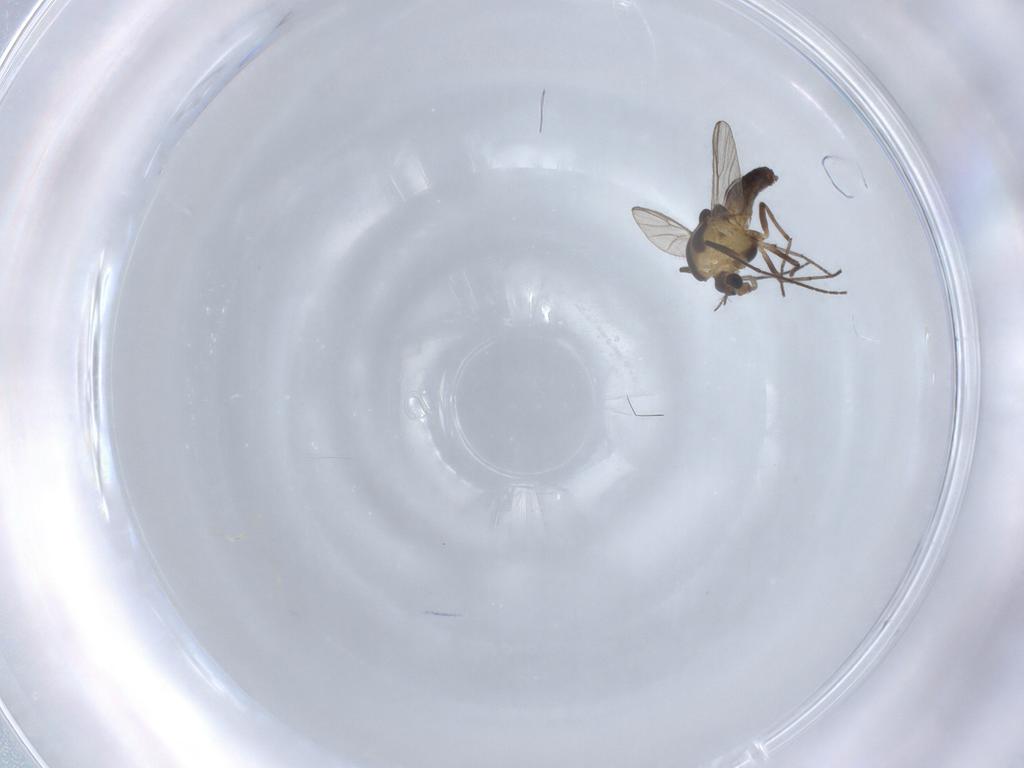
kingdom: Animalia
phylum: Arthropoda
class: Insecta
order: Diptera
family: Chironomidae
